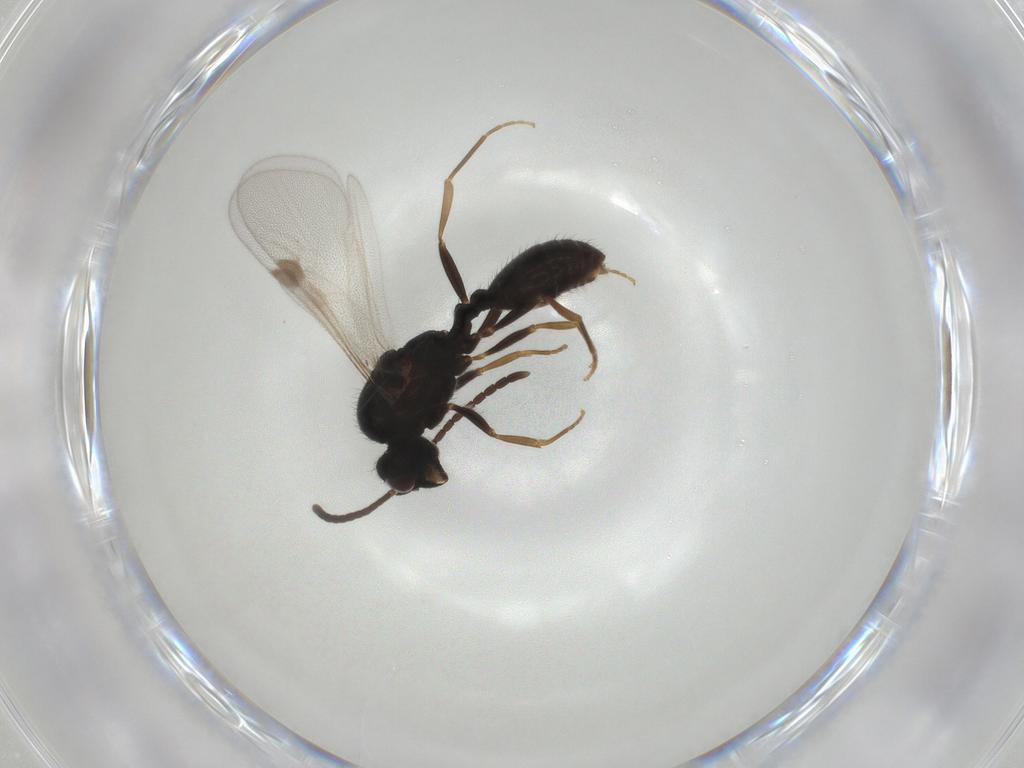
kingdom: Animalia
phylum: Arthropoda
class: Insecta
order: Hymenoptera
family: Formicidae
